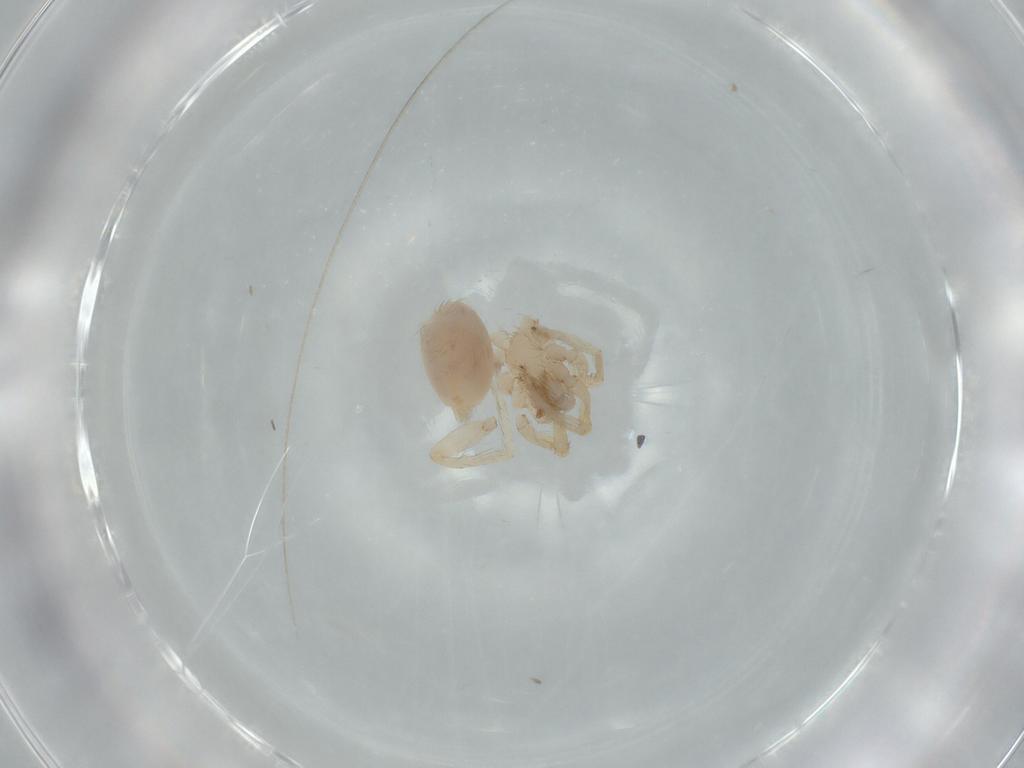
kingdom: Animalia
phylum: Arthropoda
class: Arachnida
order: Araneae
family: Oonopidae
